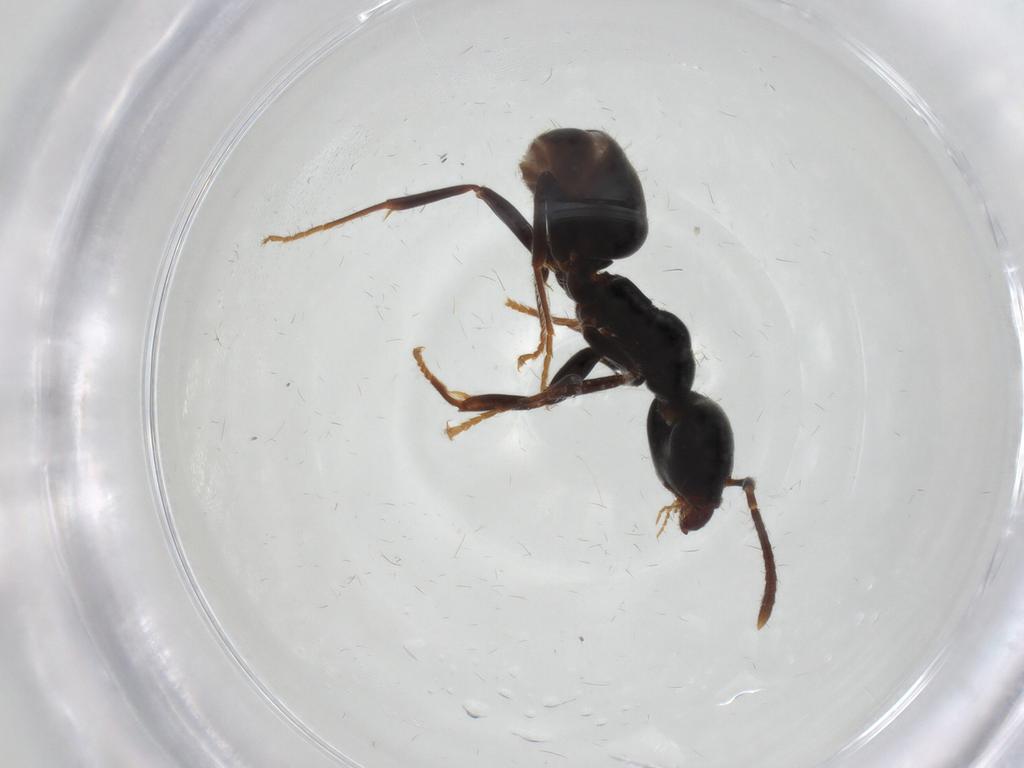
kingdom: Animalia
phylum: Arthropoda
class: Insecta
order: Hymenoptera
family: Formicidae
